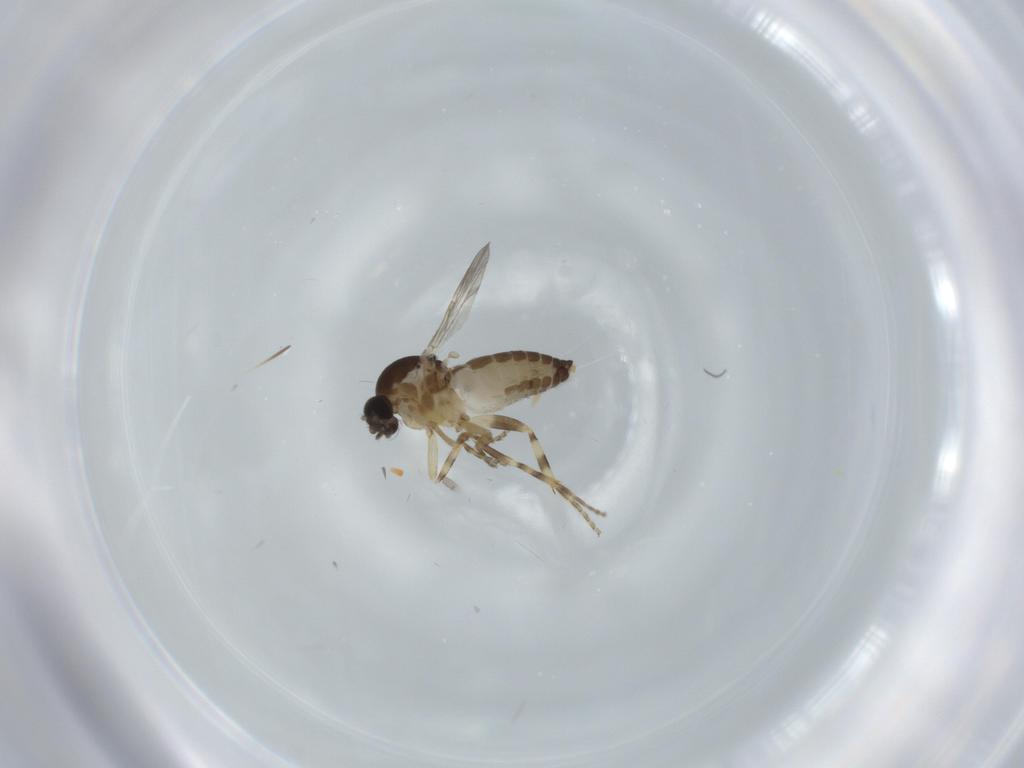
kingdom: Animalia
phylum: Arthropoda
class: Insecta
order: Diptera
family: Ceratopogonidae
